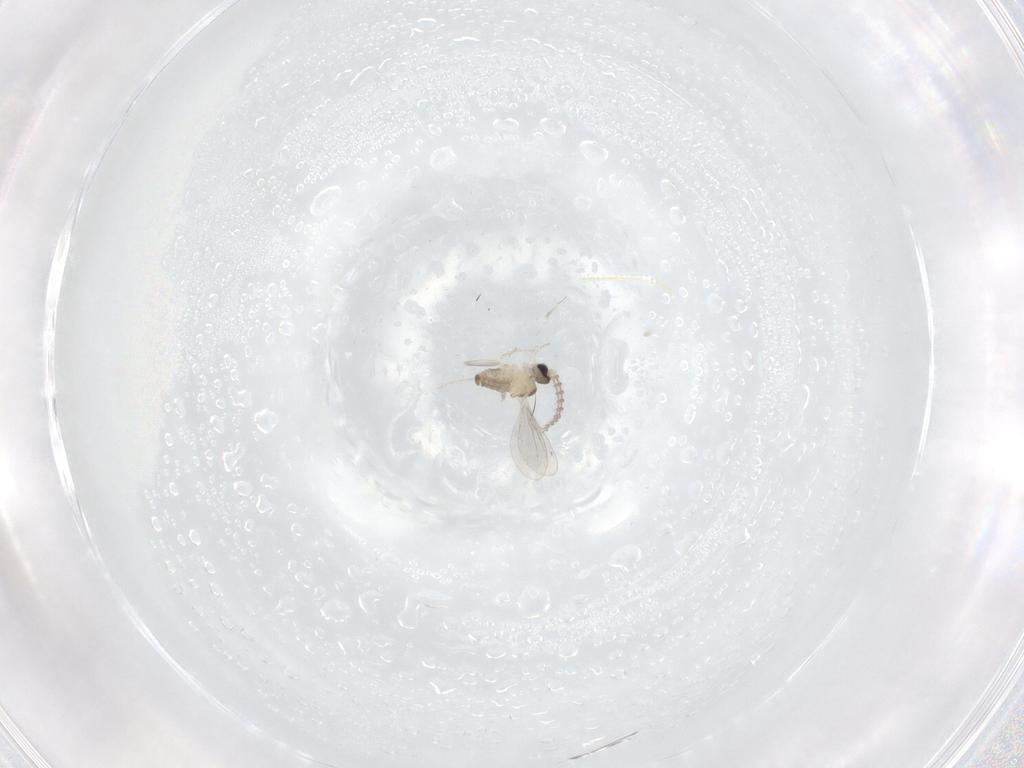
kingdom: Animalia
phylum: Arthropoda
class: Insecta
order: Diptera
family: Cecidomyiidae
